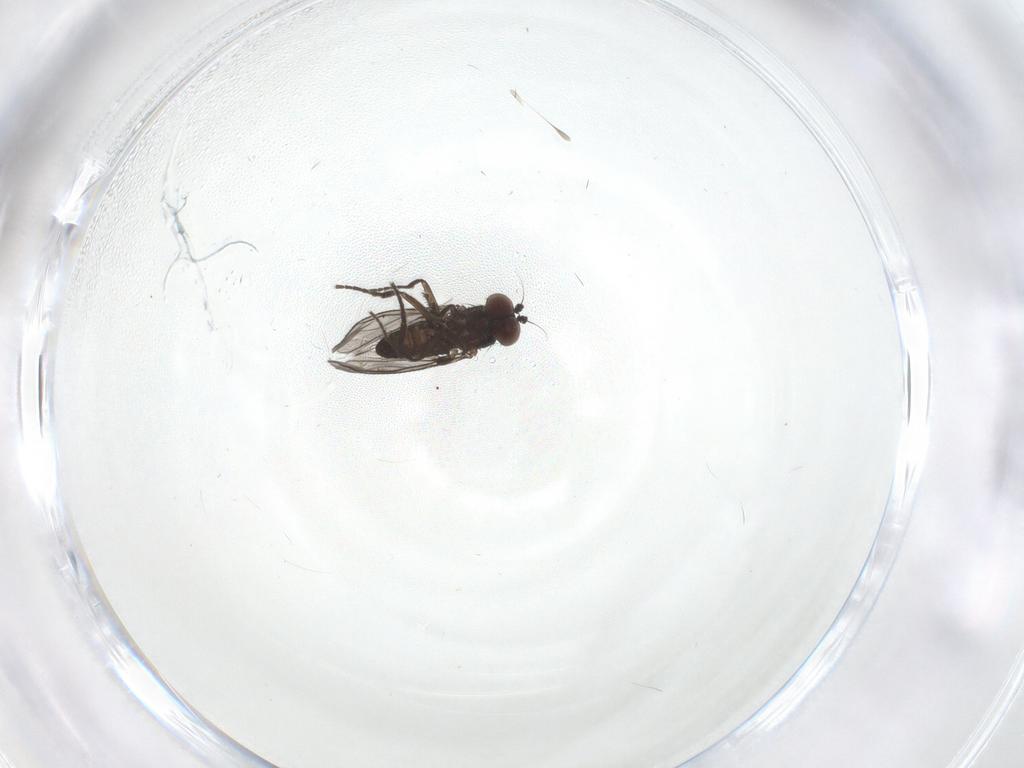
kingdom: Animalia
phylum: Arthropoda
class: Insecta
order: Diptera
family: Dolichopodidae
